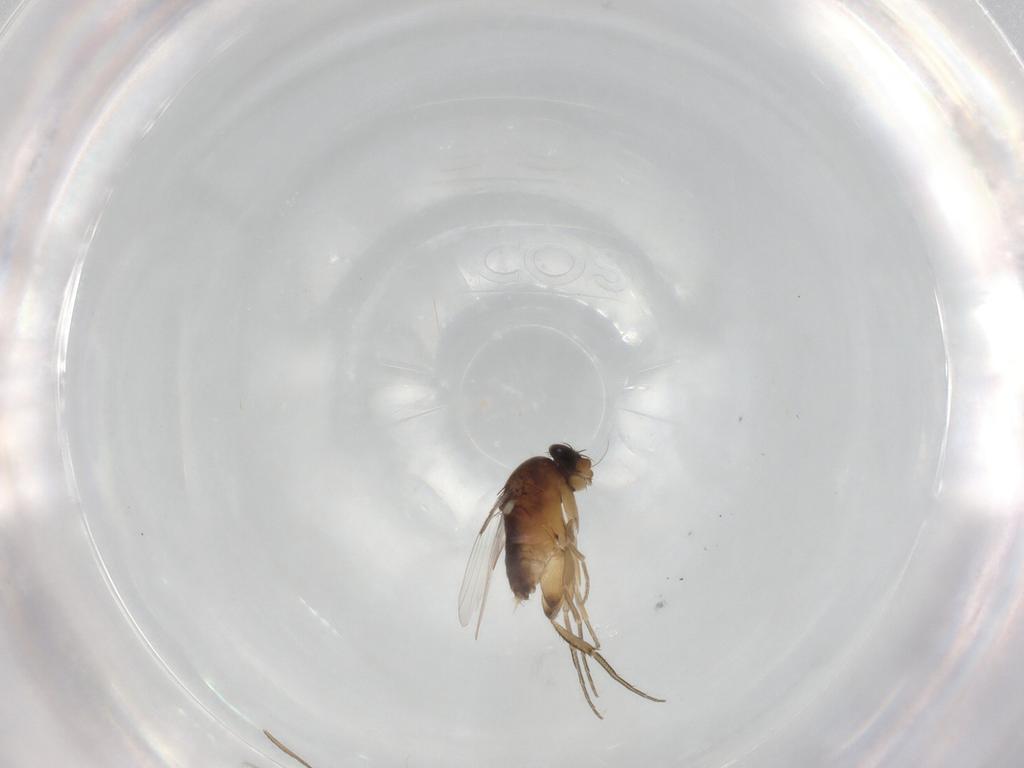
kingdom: Animalia
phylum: Arthropoda
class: Insecta
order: Diptera
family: Phoridae
